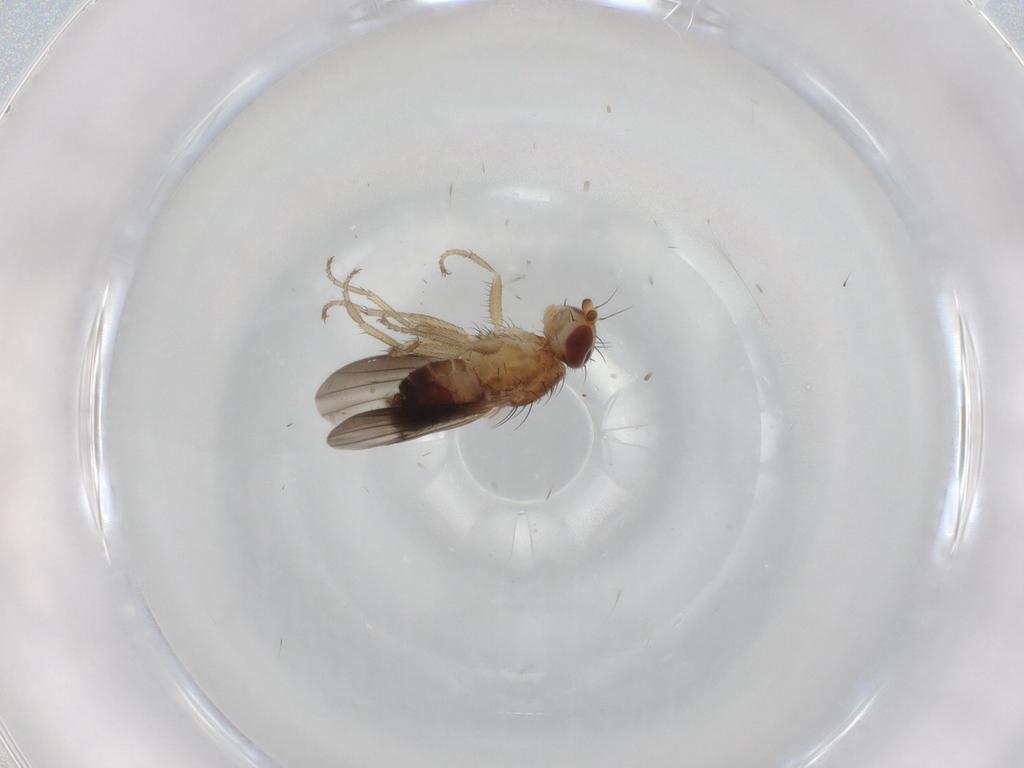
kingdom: Animalia
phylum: Arthropoda
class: Insecta
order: Diptera
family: Heleomyzidae
